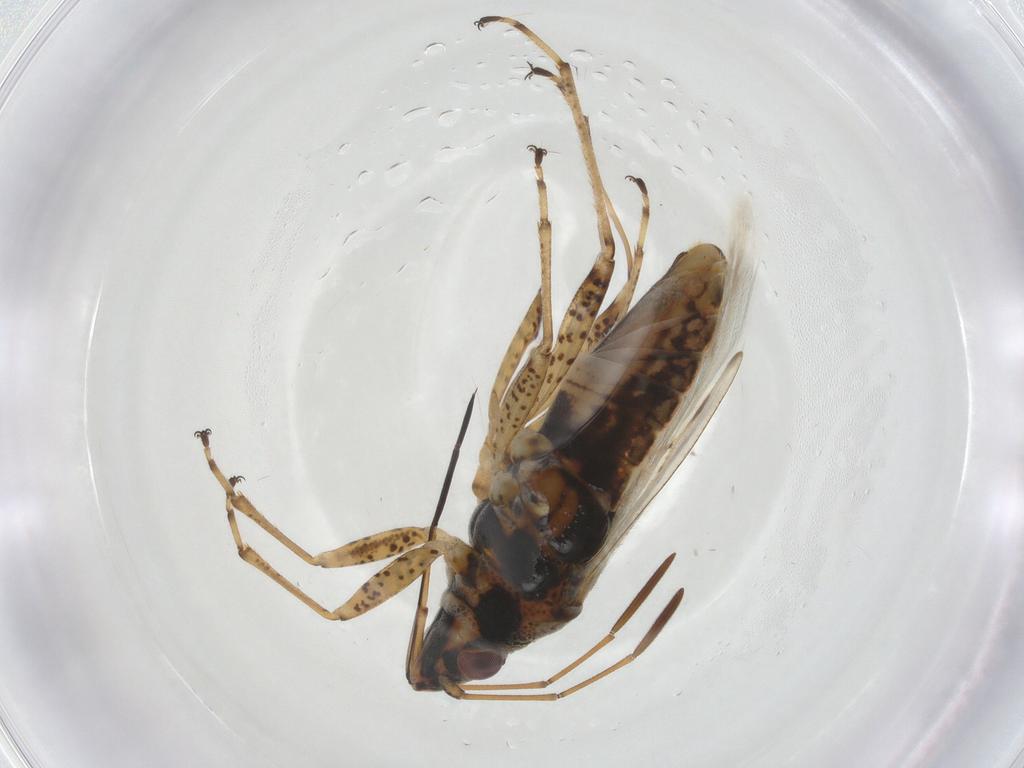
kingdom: Animalia
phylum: Arthropoda
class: Insecta
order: Hemiptera
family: Lygaeidae
